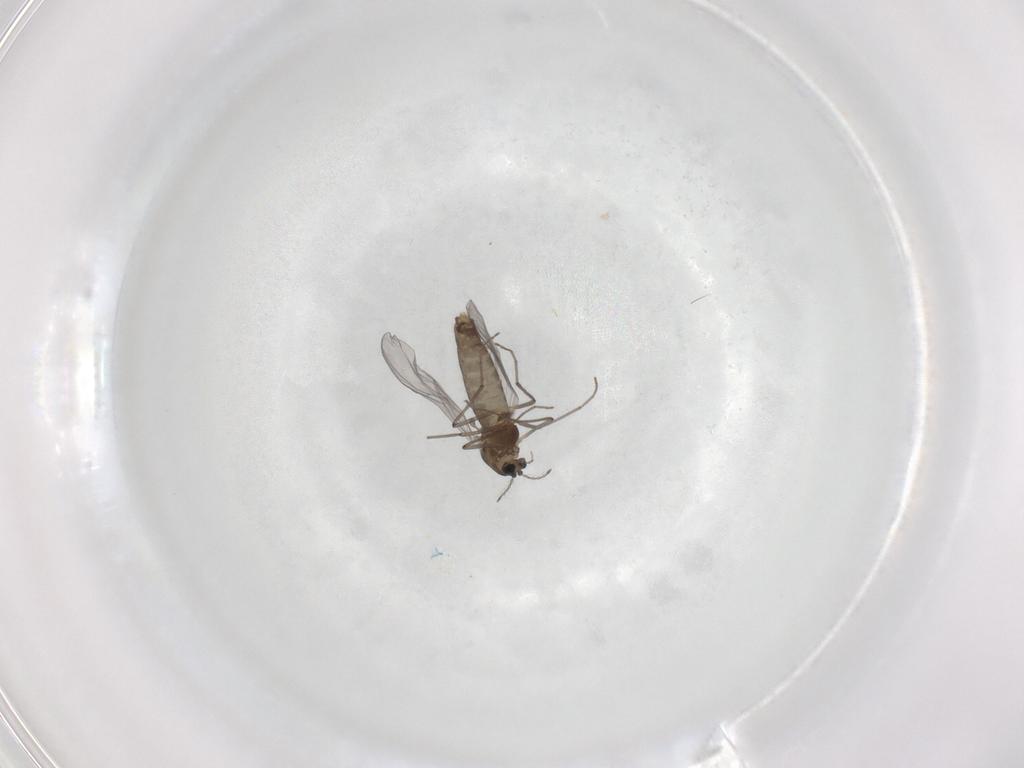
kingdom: Animalia
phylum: Arthropoda
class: Insecta
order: Diptera
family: Chironomidae
